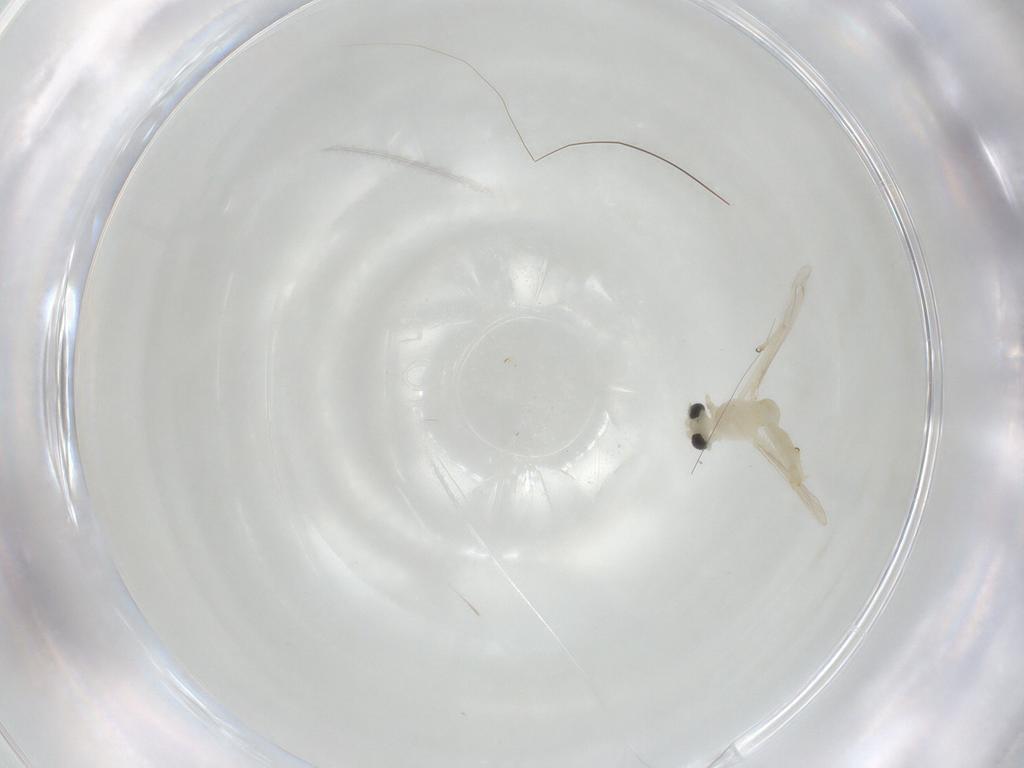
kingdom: Animalia
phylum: Arthropoda
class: Insecta
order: Diptera
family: Chironomidae
